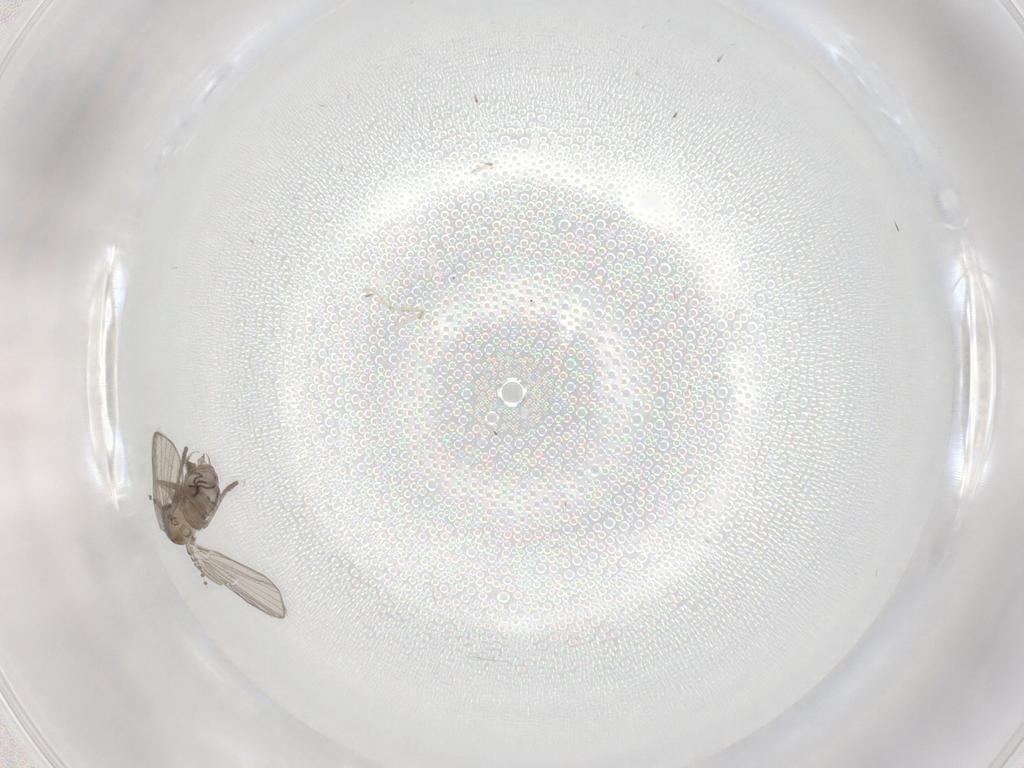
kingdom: Animalia
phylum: Arthropoda
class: Insecta
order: Diptera
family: Psychodidae
